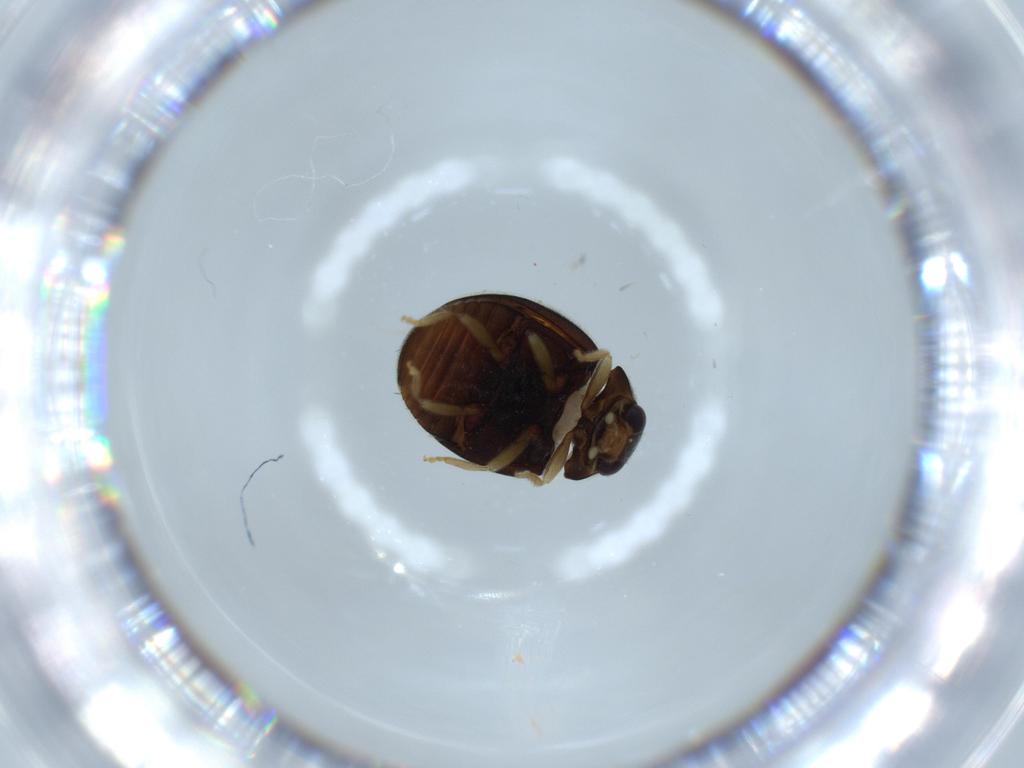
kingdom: Animalia
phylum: Arthropoda
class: Insecta
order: Coleoptera
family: Coccinellidae
